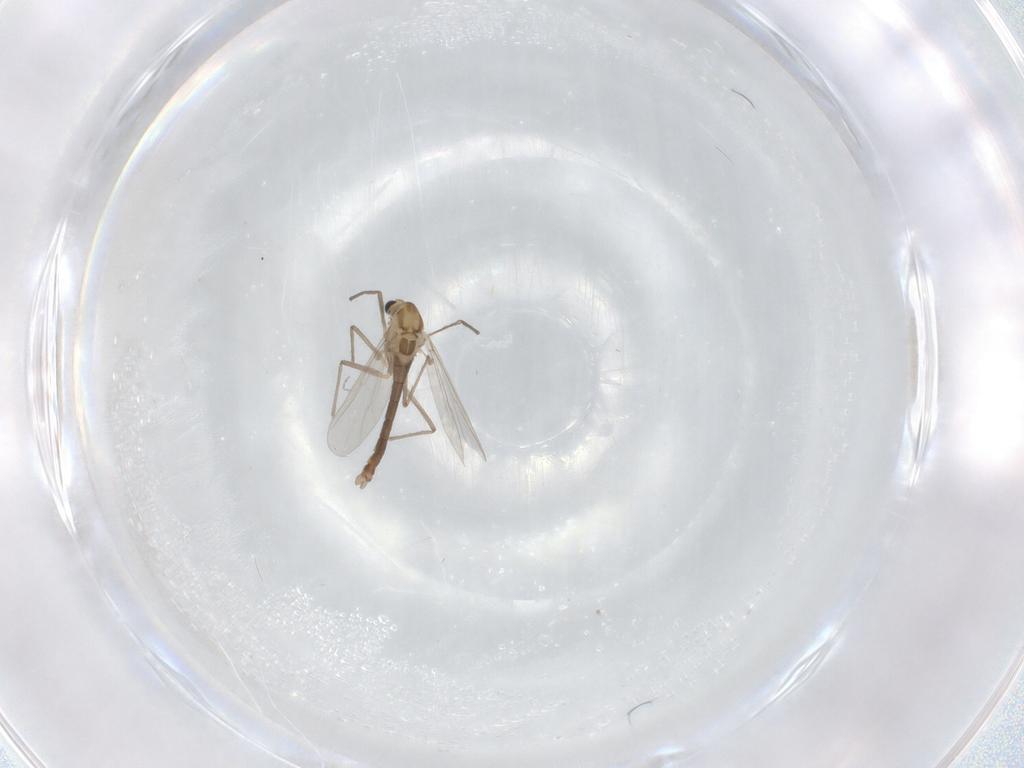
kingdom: Animalia
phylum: Arthropoda
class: Insecta
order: Diptera
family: Chironomidae
